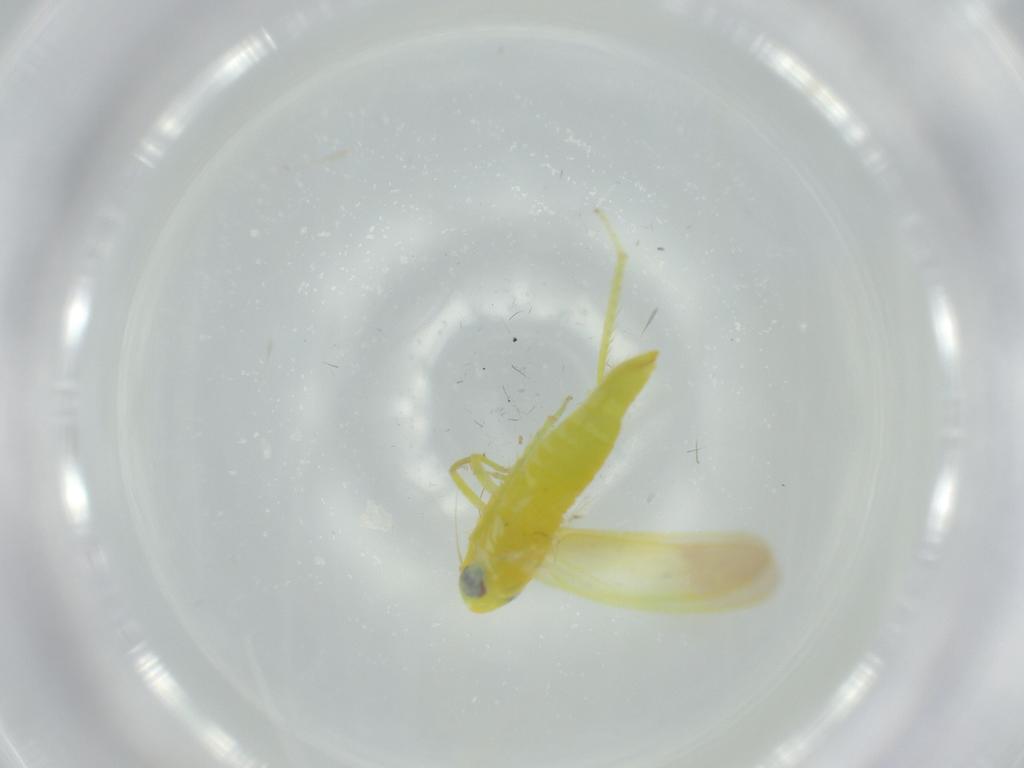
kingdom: Animalia
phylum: Arthropoda
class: Insecta
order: Hemiptera
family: Cicadellidae
